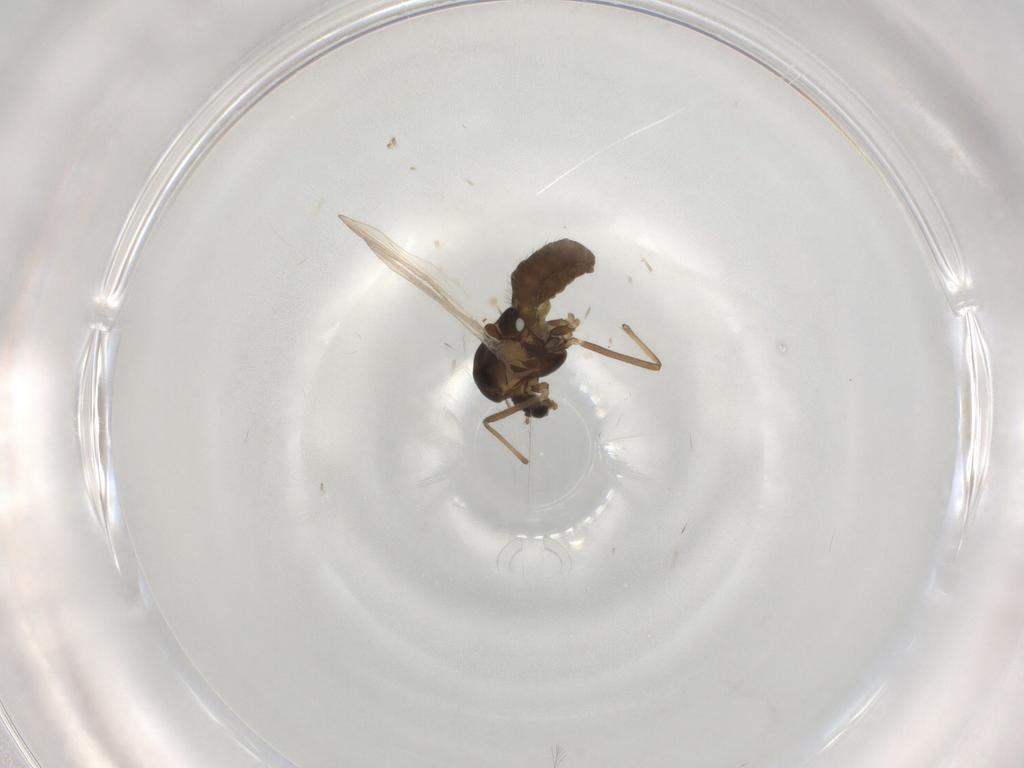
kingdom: Animalia
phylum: Arthropoda
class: Insecta
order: Diptera
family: Chironomidae
